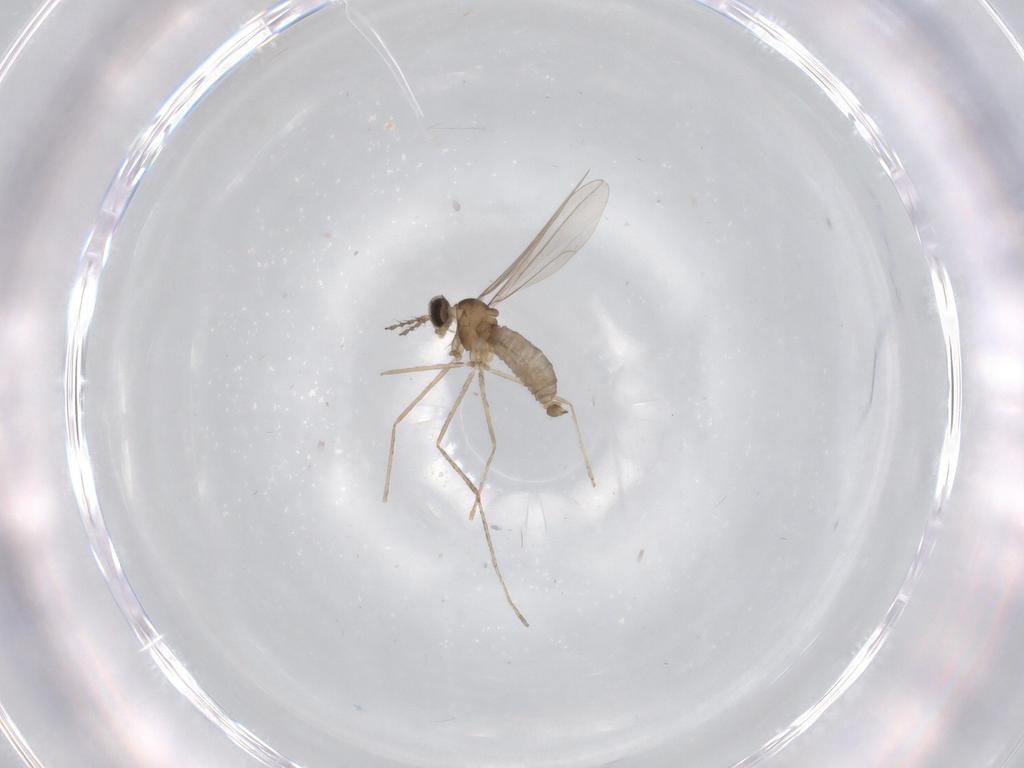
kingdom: Animalia
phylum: Arthropoda
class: Insecta
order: Diptera
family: Cecidomyiidae
